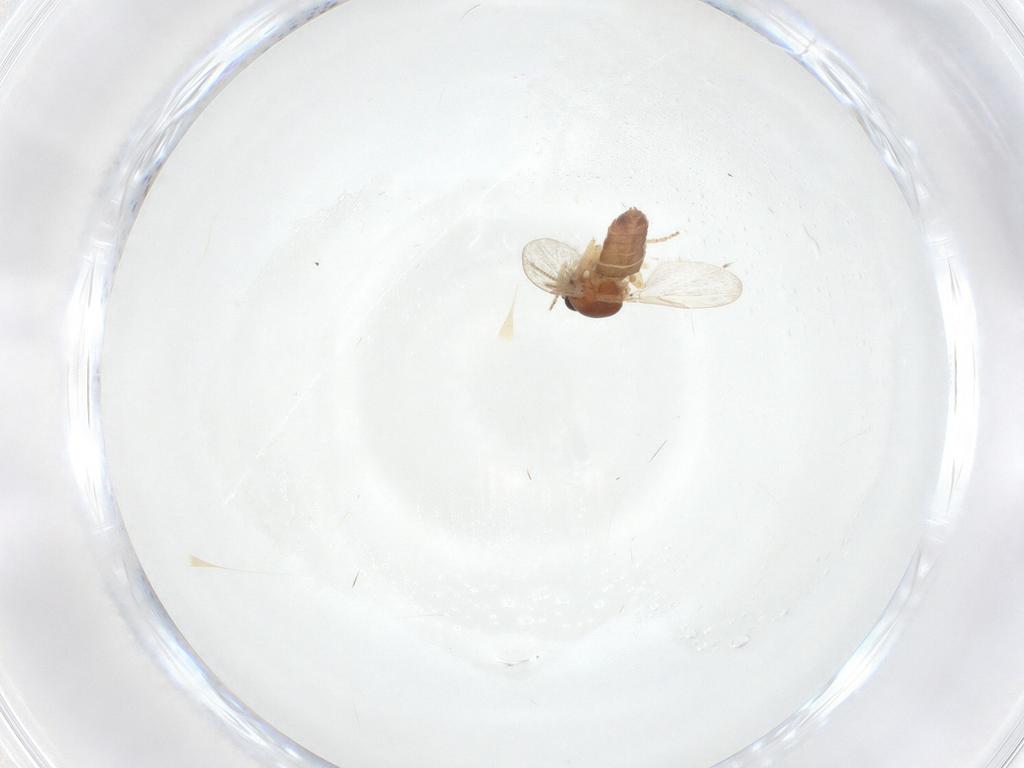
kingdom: Animalia
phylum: Arthropoda
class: Insecta
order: Diptera
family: Ceratopogonidae
